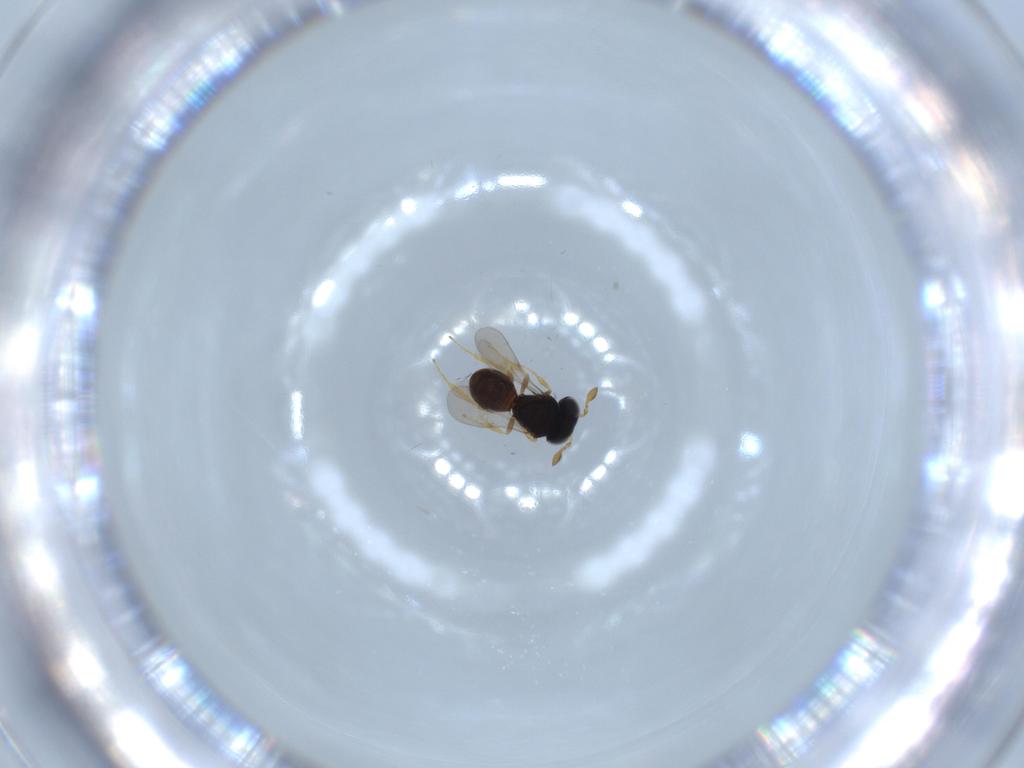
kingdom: Animalia
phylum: Arthropoda
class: Insecta
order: Hymenoptera
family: Scelionidae
